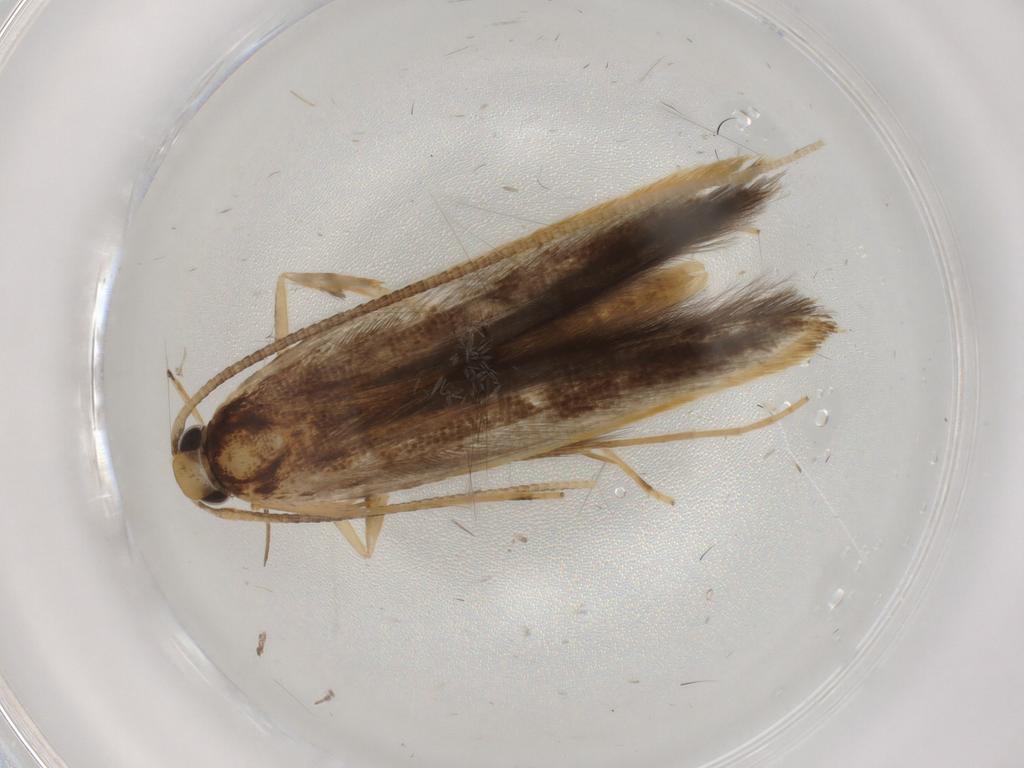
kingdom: Animalia
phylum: Arthropoda
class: Insecta
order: Lepidoptera
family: Pterolonchidae
